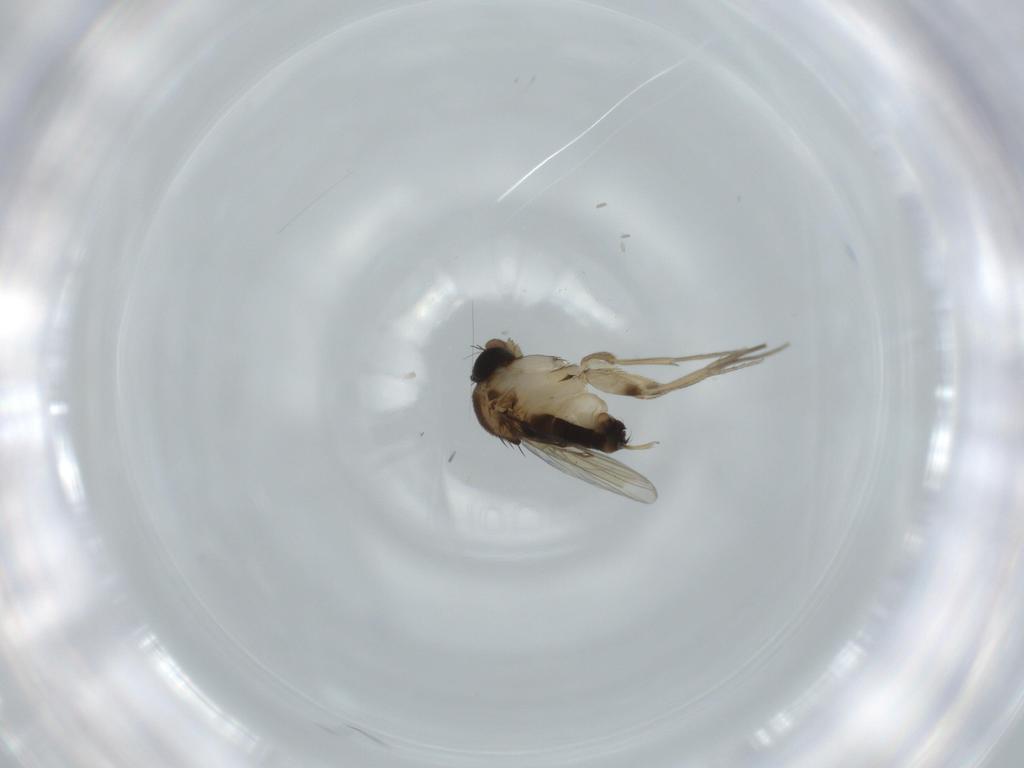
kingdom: Animalia
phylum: Arthropoda
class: Insecta
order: Diptera
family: Phoridae
